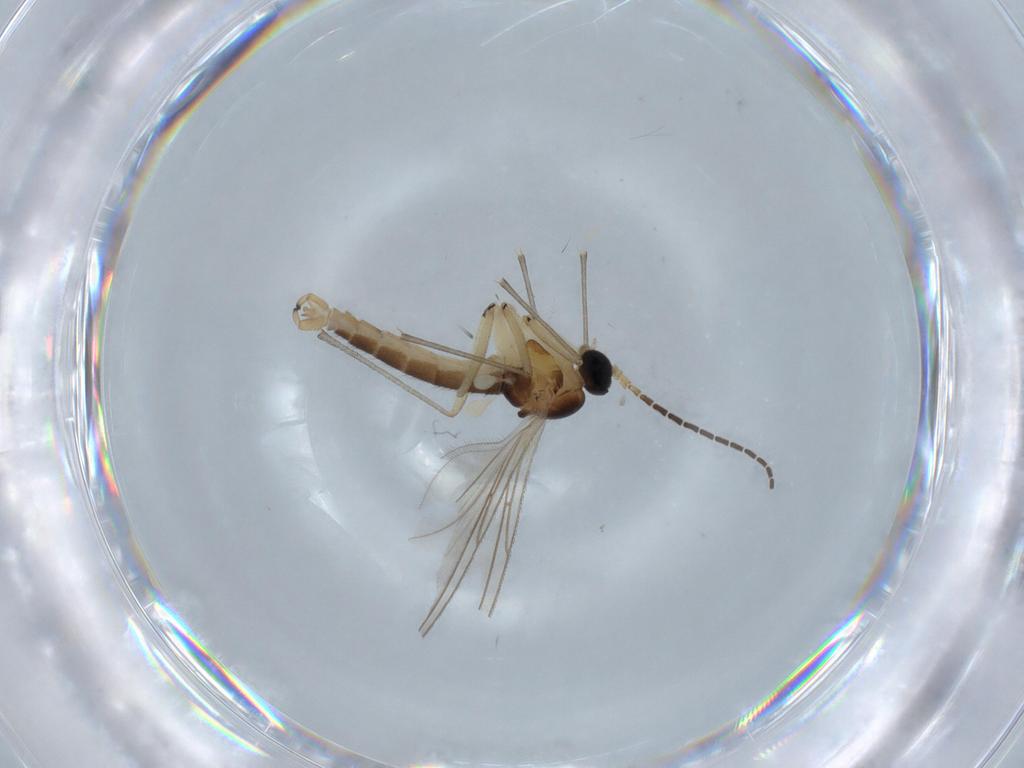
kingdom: Animalia
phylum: Arthropoda
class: Insecta
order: Diptera
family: Sciaridae
